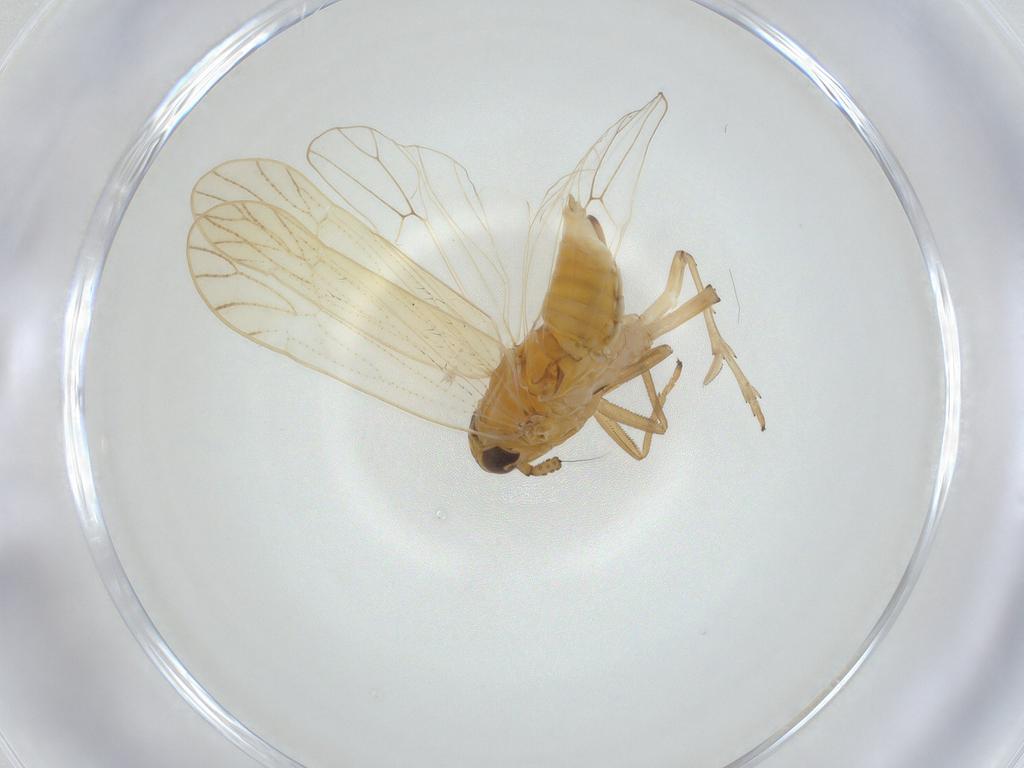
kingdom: Animalia
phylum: Arthropoda
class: Insecta
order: Hemiptera
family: Delphacidae
